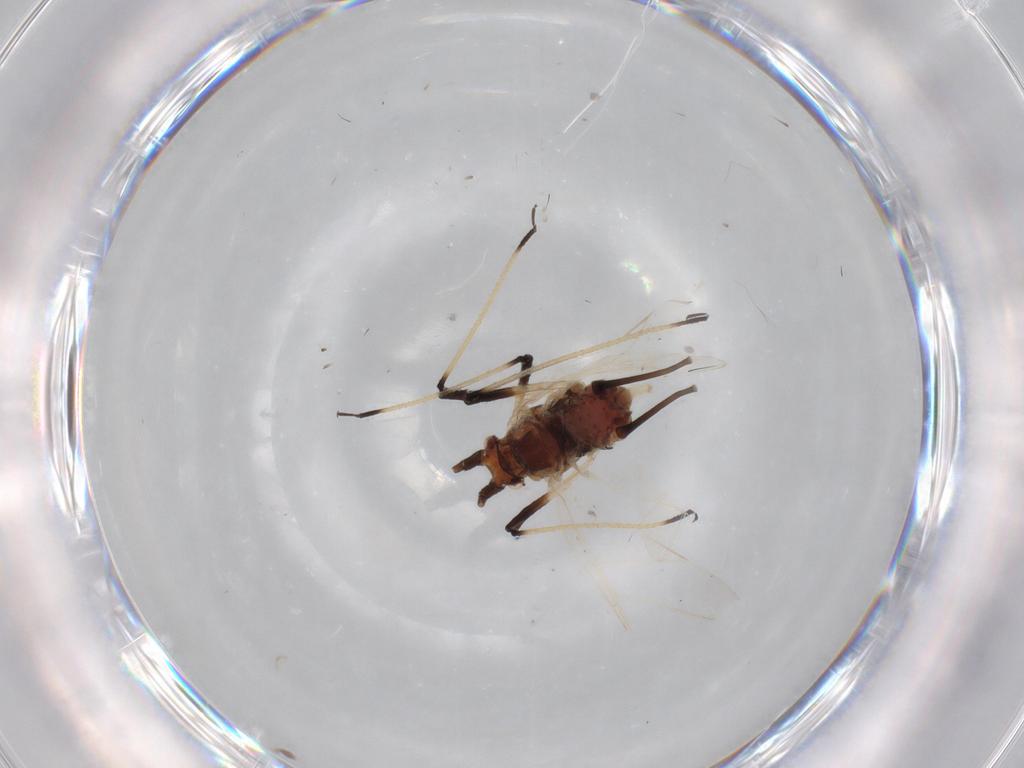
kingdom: Animalia
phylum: Arthropoda
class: Insecta
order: Hemiptera
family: Aphididae
